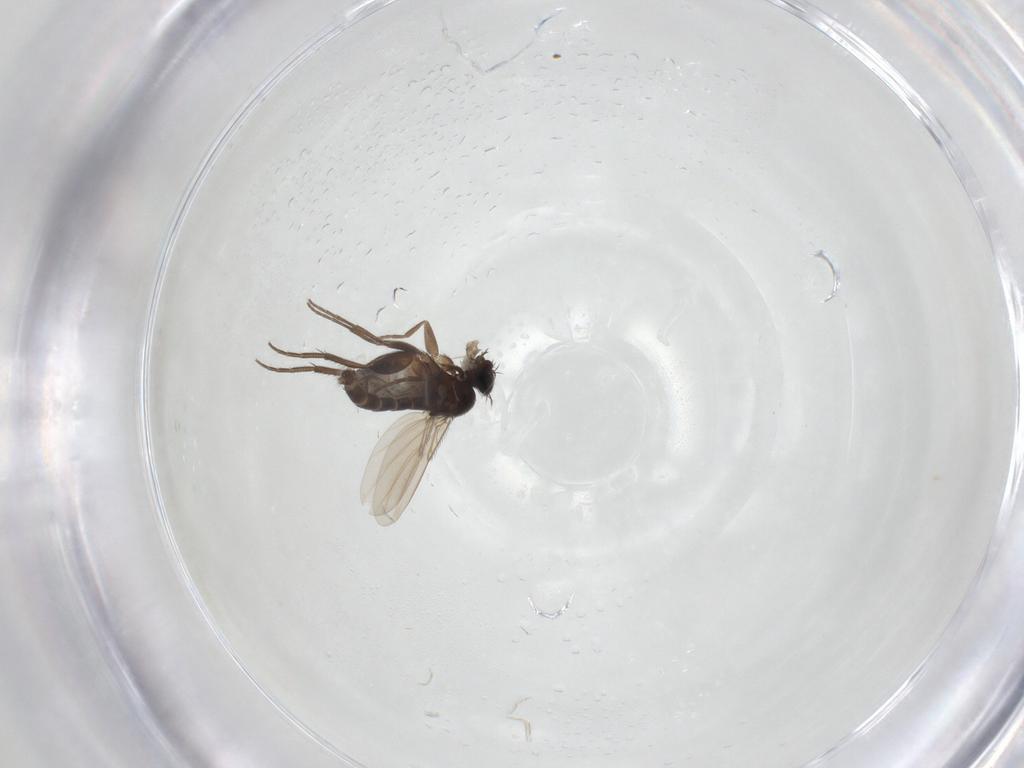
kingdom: Animalia
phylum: Arthropoda
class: Insecta
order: Diptera
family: Phoridae
